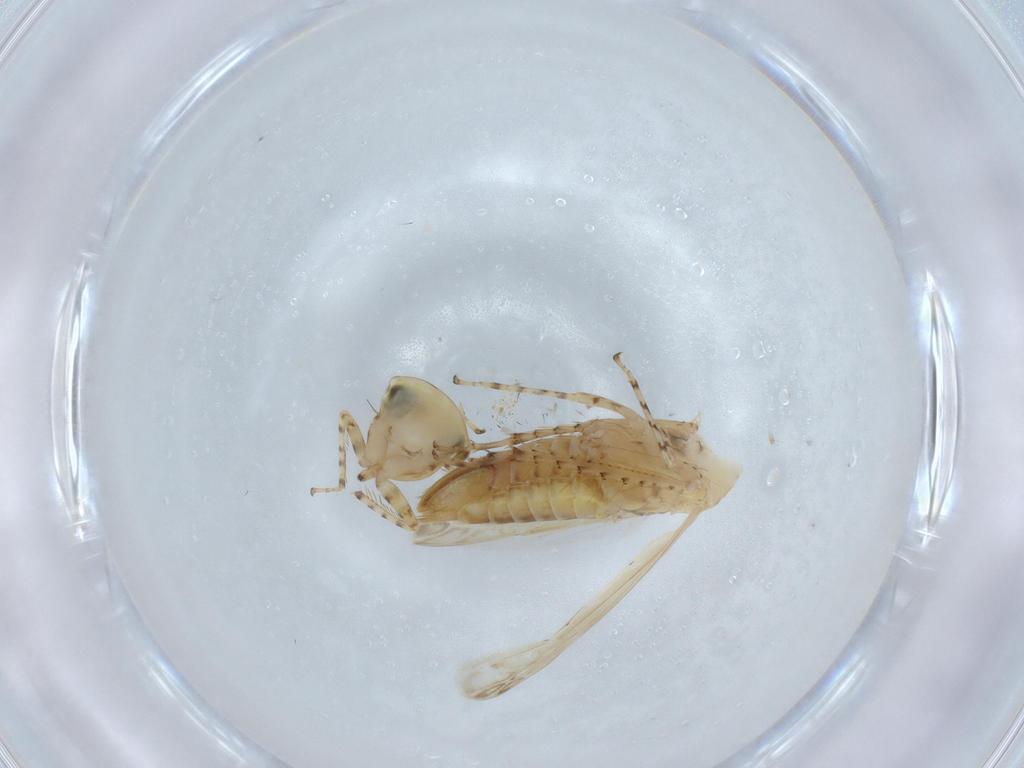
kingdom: Animalia
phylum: Arthropoda
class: Insecta
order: Hemiptera
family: Cicadellidae
